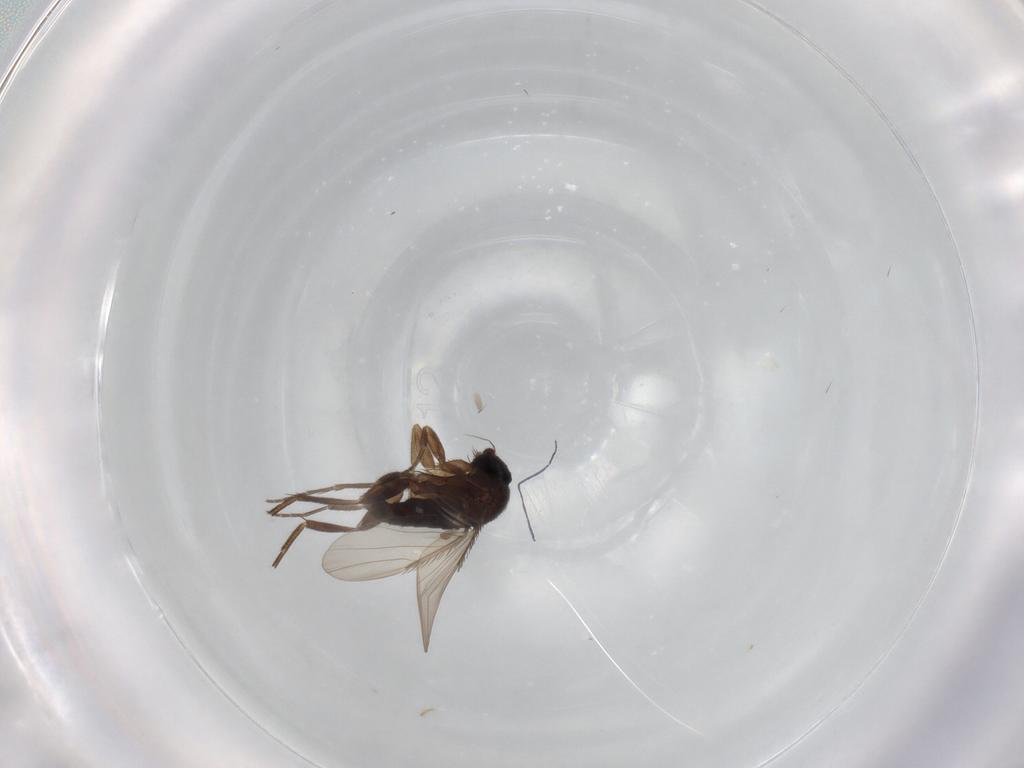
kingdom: Animalia
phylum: Arthropoda
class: Insecta
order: Diptera
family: Phoridae
